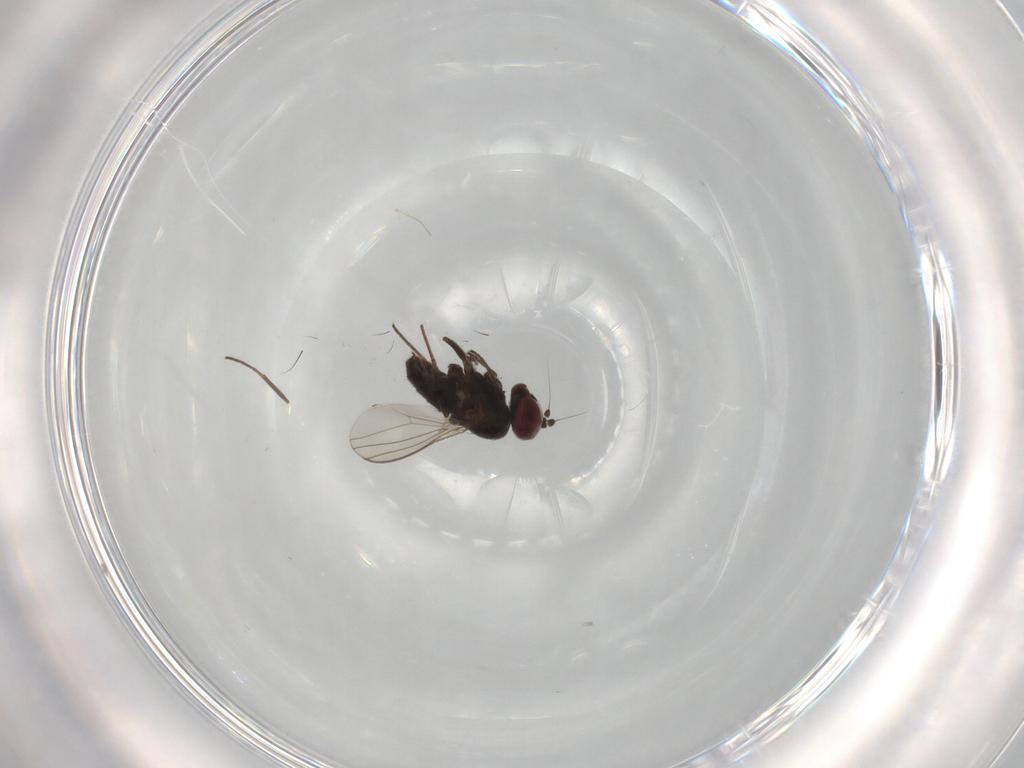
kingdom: Animalia
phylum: Arthropoda
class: Insecta
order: Diptera
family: Dolichopodidae
